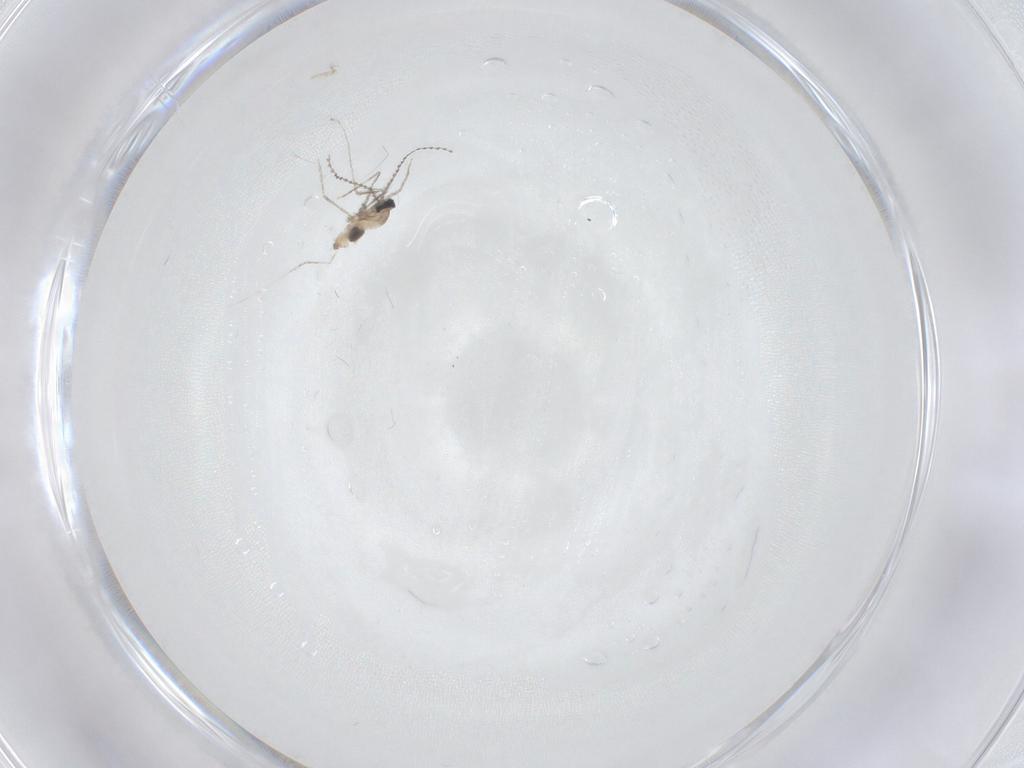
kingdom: Animalia
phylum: Arthropoda
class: Insecta
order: Diptera
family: Cecidomyiidae
